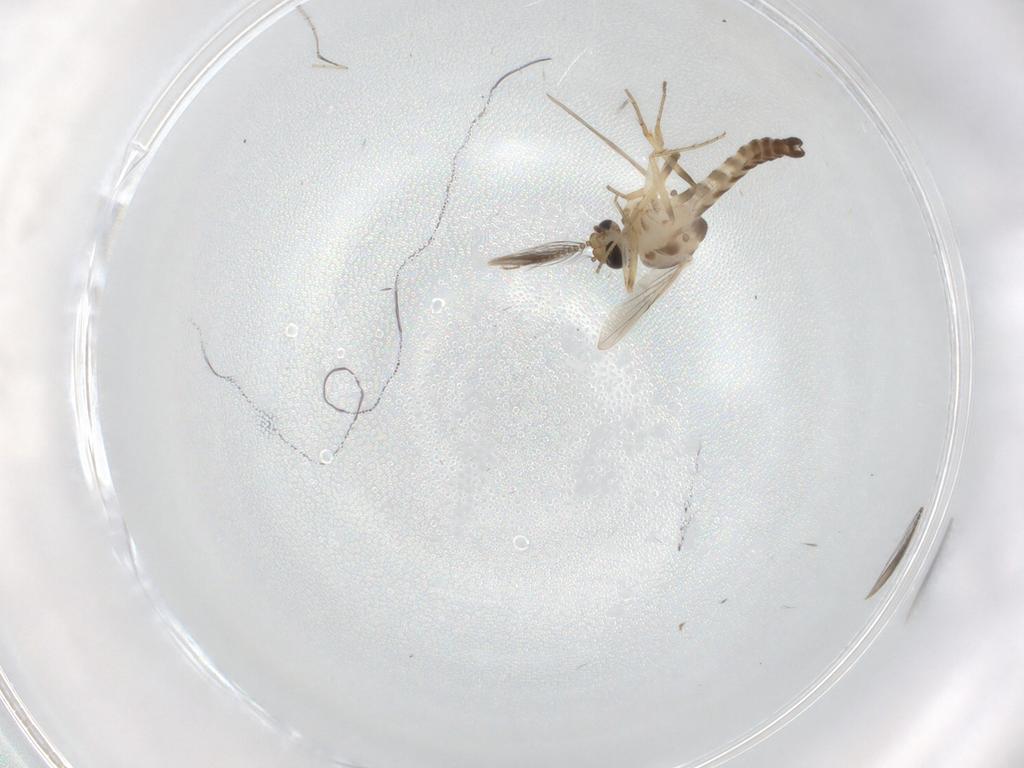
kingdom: Animalia
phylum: Arthropoda
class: Insecta
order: Diptera
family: Ceratopogonidae
